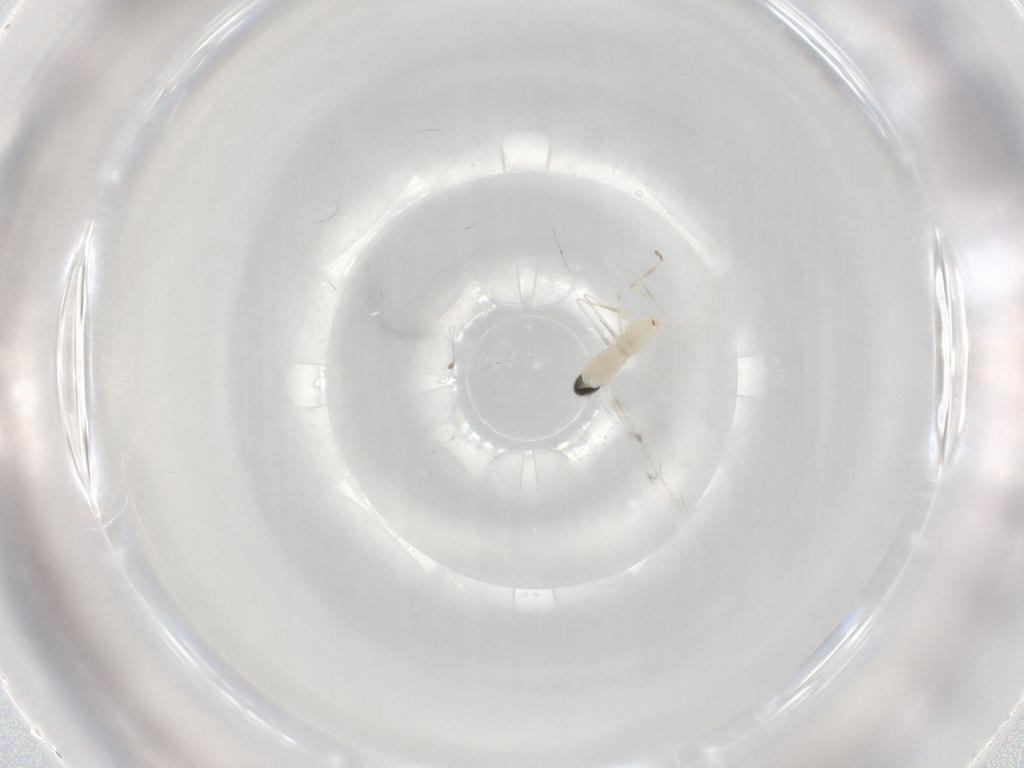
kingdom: Animalia
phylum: Arthropoda
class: Insecta
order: Diptera
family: Cecidomyiidae
